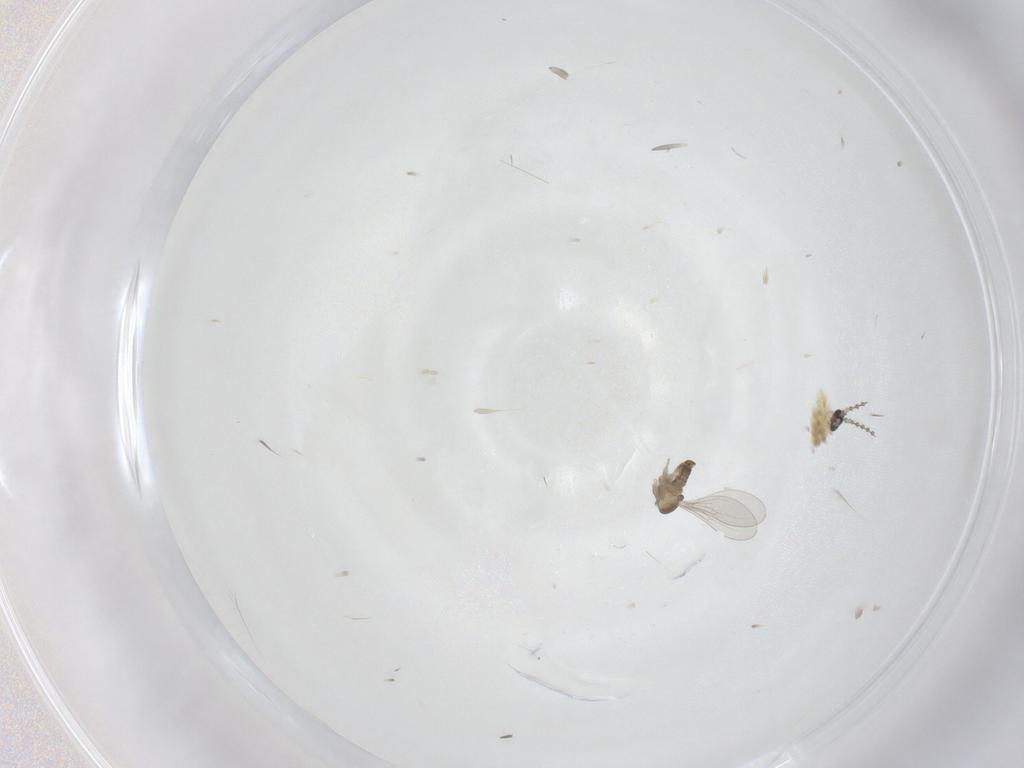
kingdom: Animalia
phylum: Arthropoda
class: Insecta
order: Diptera
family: Cecidomyiidae
